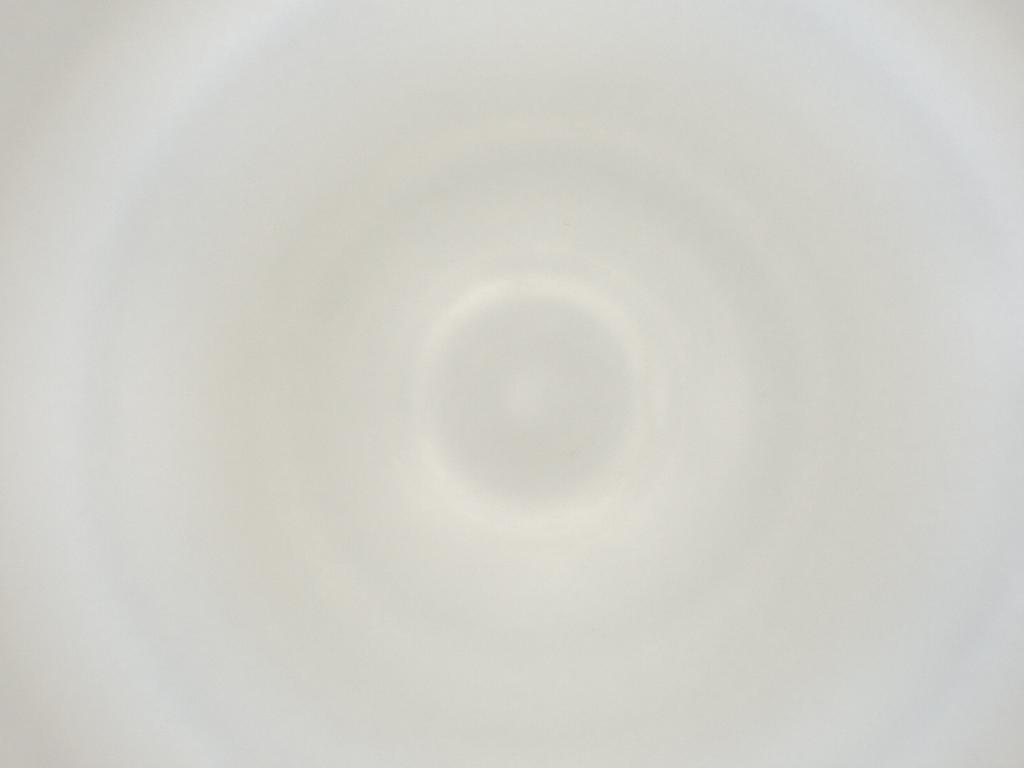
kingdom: Animalia
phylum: Arthropoda
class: Insecta
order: Diptera
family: Cecidomyiidae
